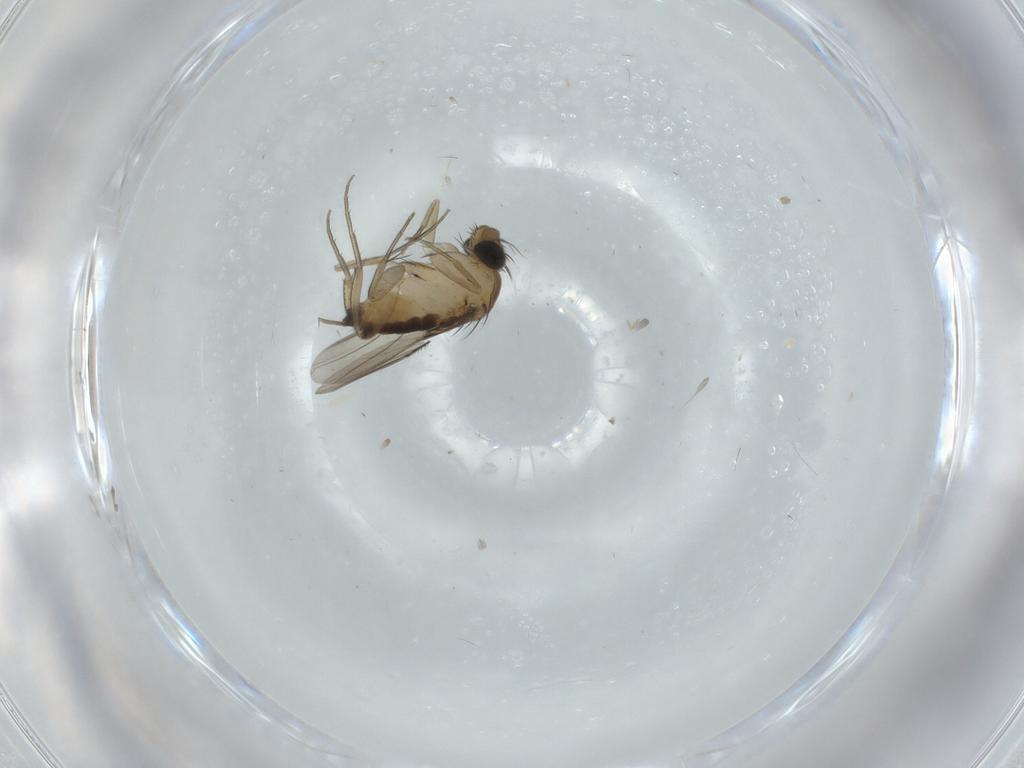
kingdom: Animalia
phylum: Arthropoda
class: Insecta
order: Diptera
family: Phoridae
